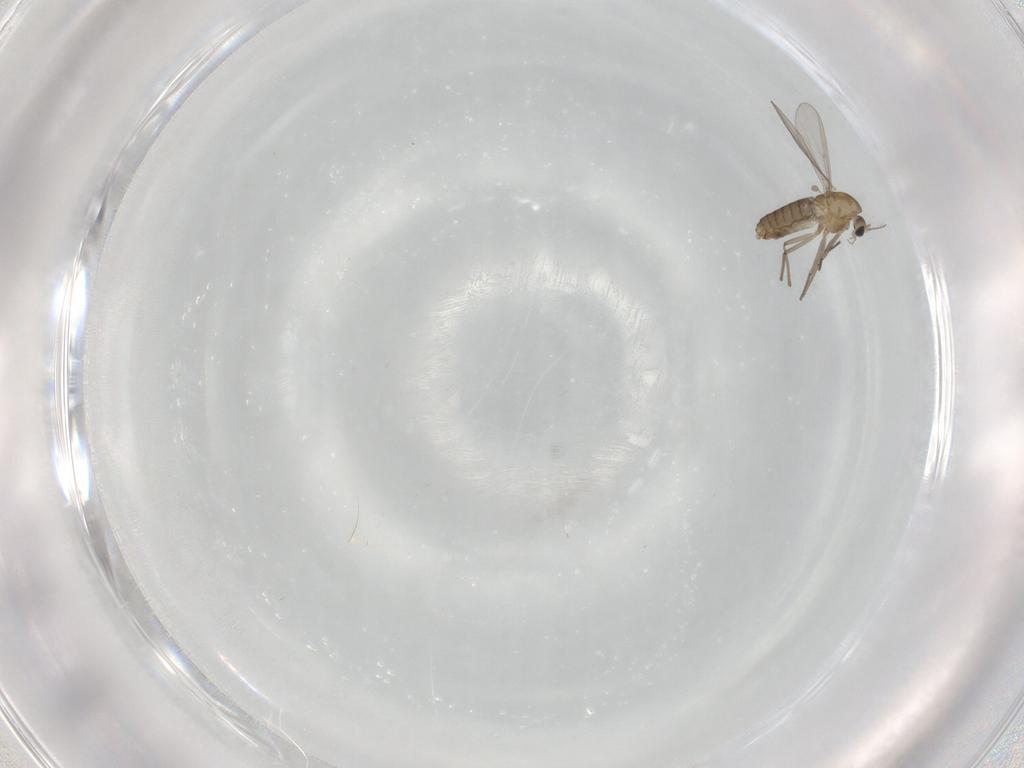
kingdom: Animalia
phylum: Arthropoda
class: Insecta
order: Diptera
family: Chironomidae
